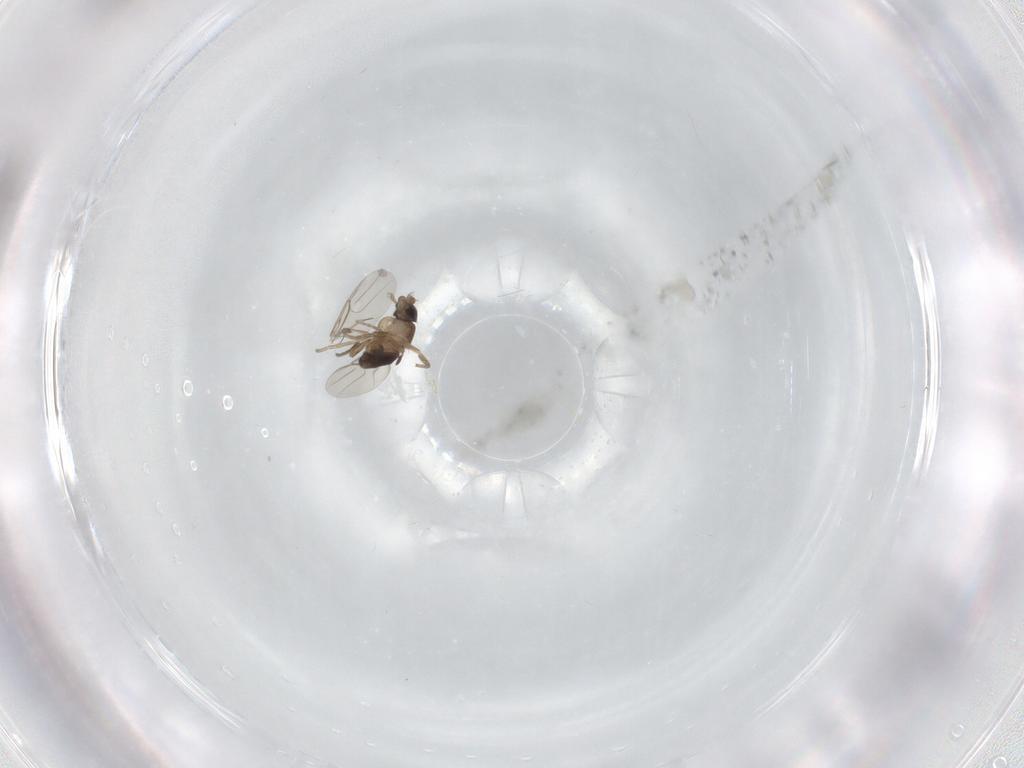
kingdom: Animalia
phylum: Arthropoda
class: Insecta
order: Diptera
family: Phoridae
